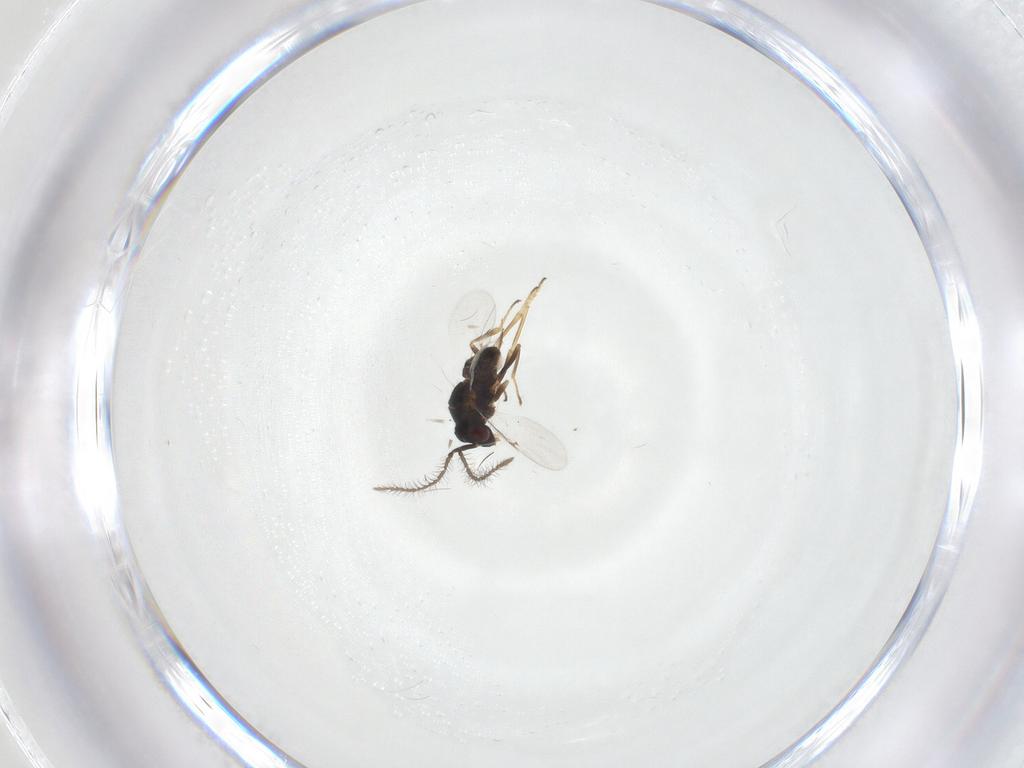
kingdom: Animalia
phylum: Arthropoda
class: Insecta
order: Hymenoptera
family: Encyrtidae
